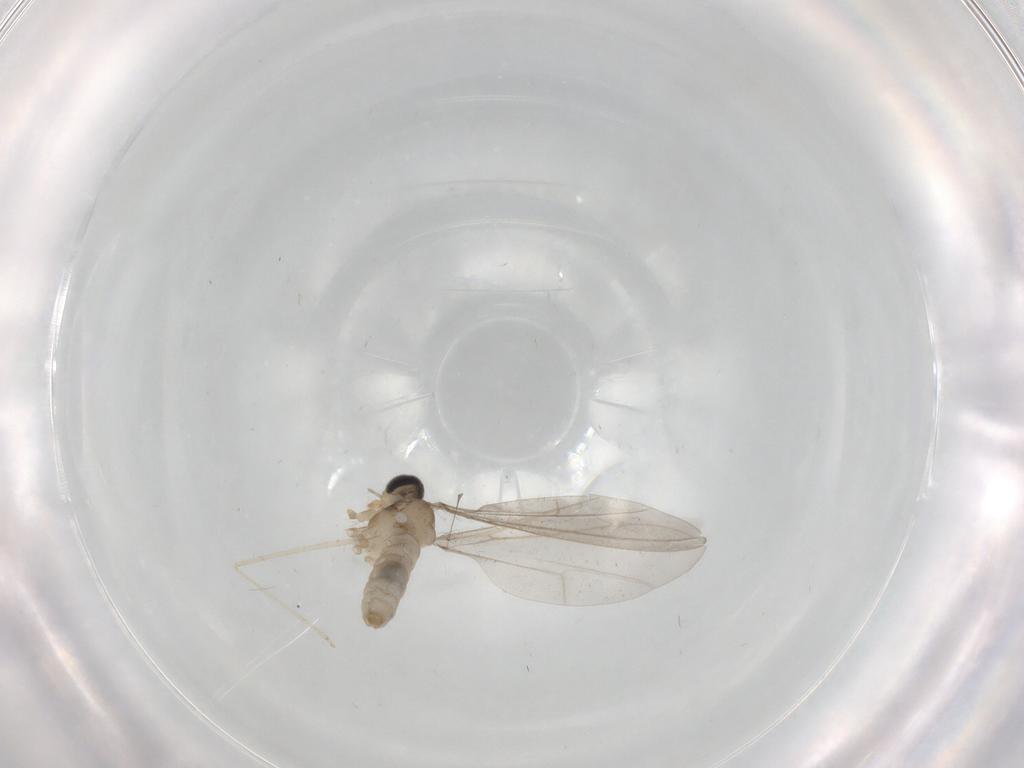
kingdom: Animalia
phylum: Arthropoda
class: Insecta
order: Diptera
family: Cecidomyiidae
